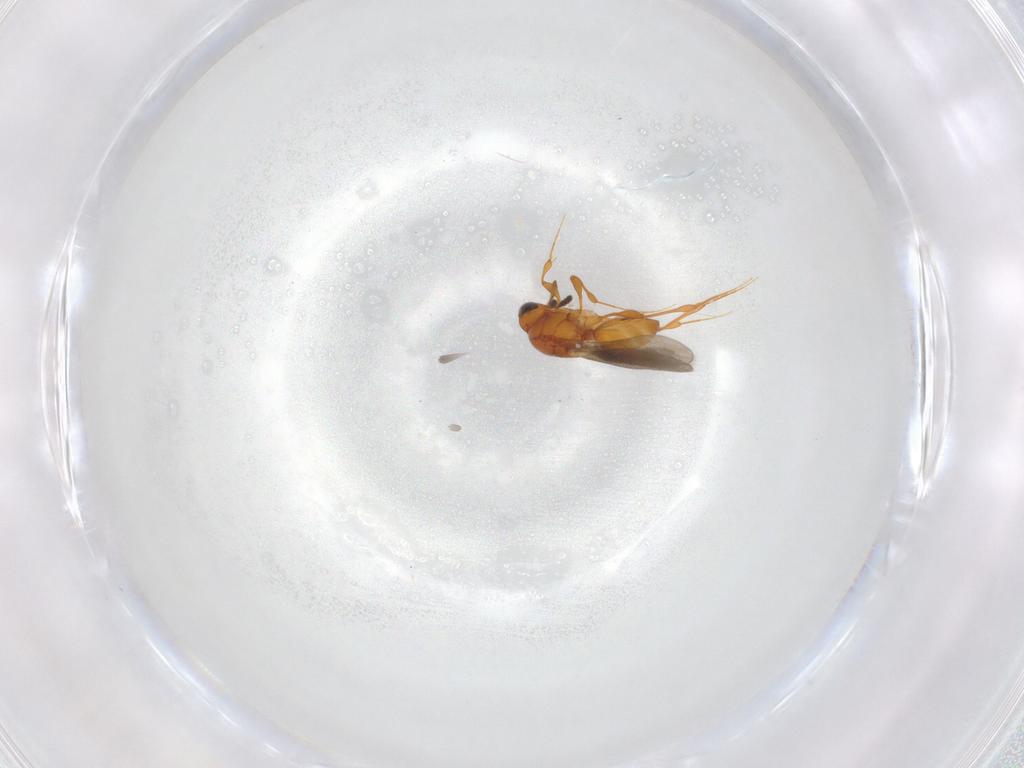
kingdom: Animalia
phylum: Arthropoda
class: Insecta
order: Hymenoptera
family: Platygastridae
